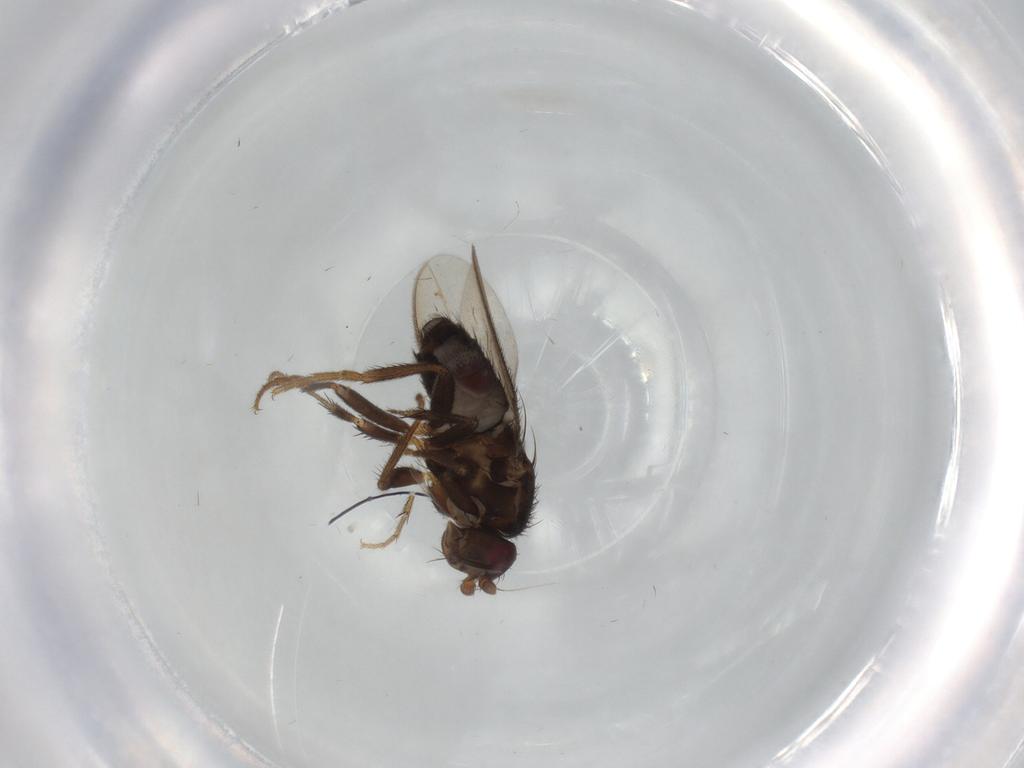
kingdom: Animalia
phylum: Arthropoda
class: Insecta
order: Diptera
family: Sphaeroceridae
